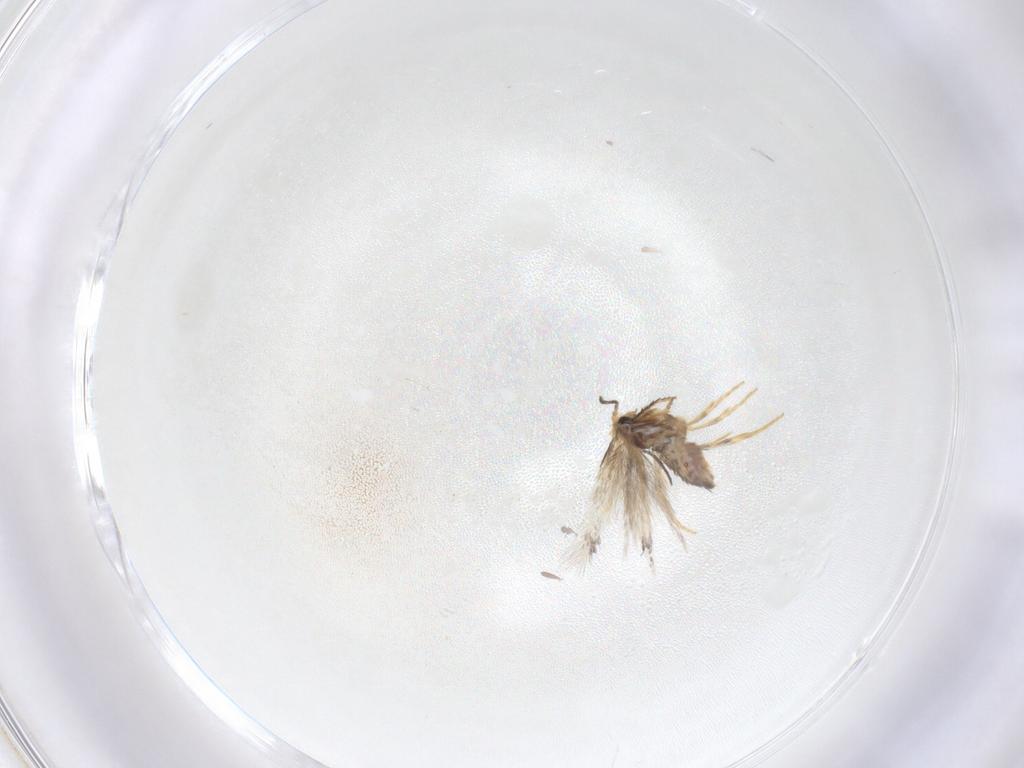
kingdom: Animalia
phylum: Arthropoda
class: Insecta
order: Lepidoptera
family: Nepticulidae
